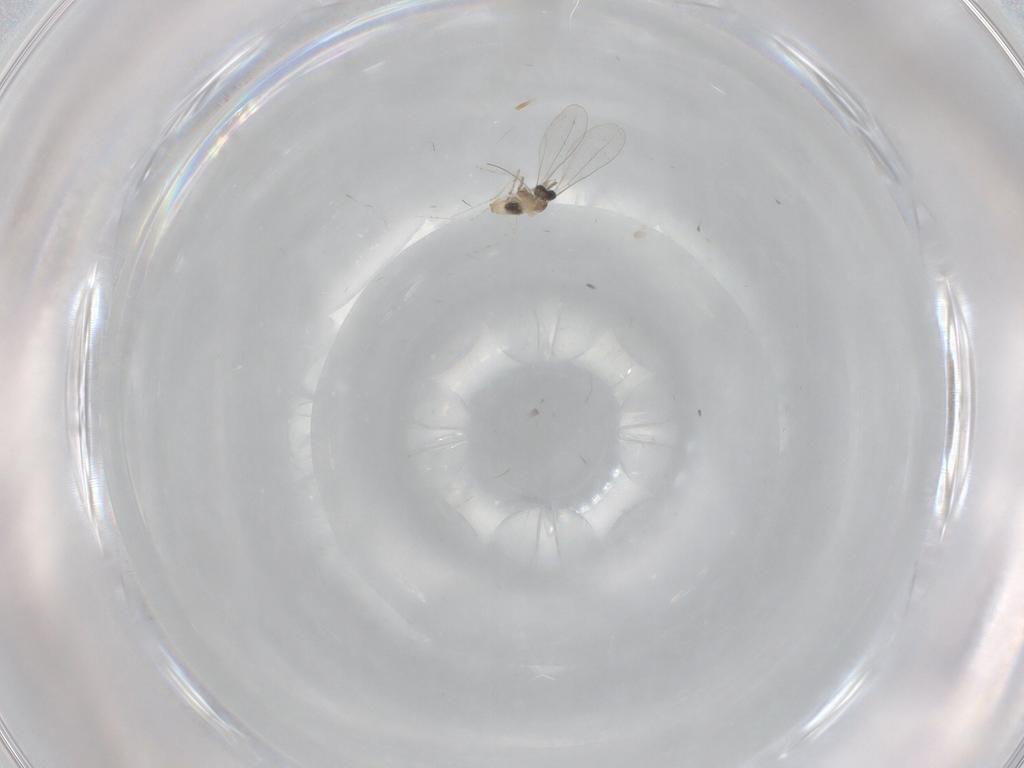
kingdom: Animalia
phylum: Arthropoda
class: Insecta
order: Diptera
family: Cecidomyiidae
